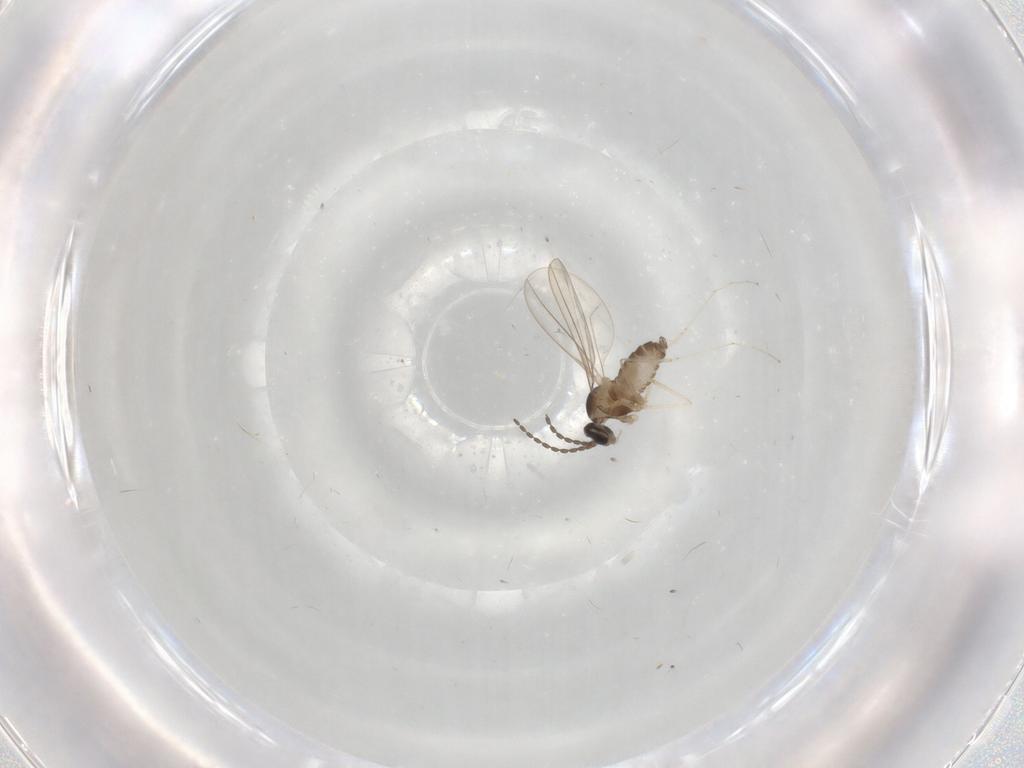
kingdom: Animalia
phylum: Arthropoda
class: Insecta
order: Diptera
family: Cecidomyiidae
